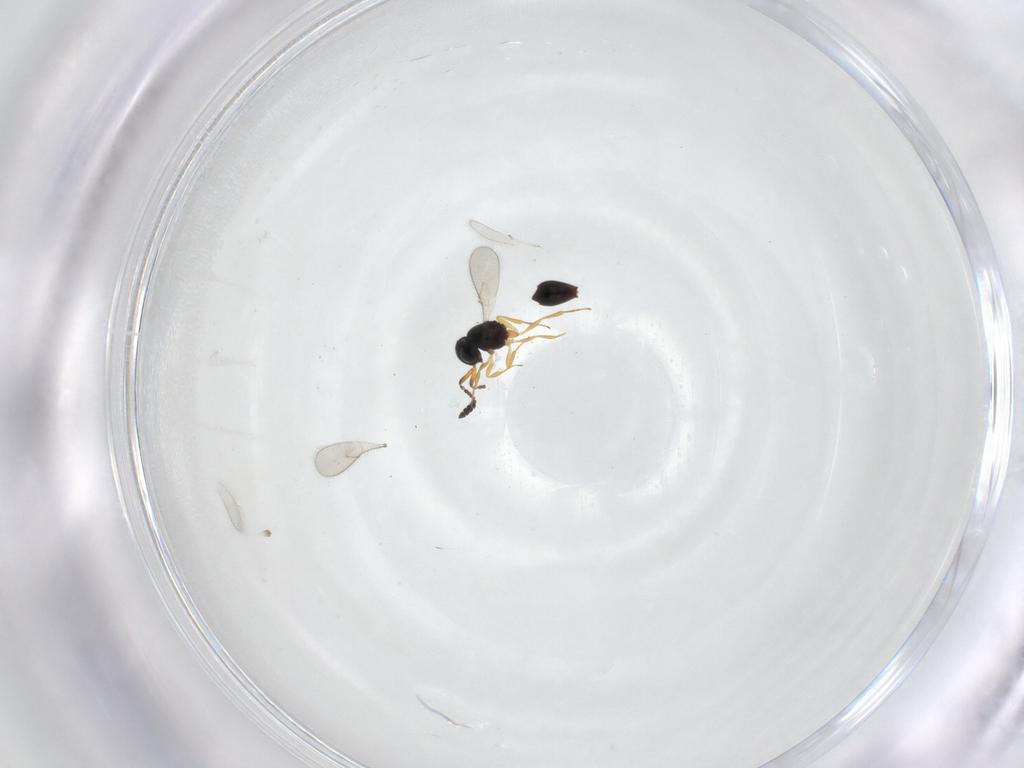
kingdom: Animalia
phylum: Arthropoda
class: Insecta
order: Hymenoptera
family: Scelionidae
